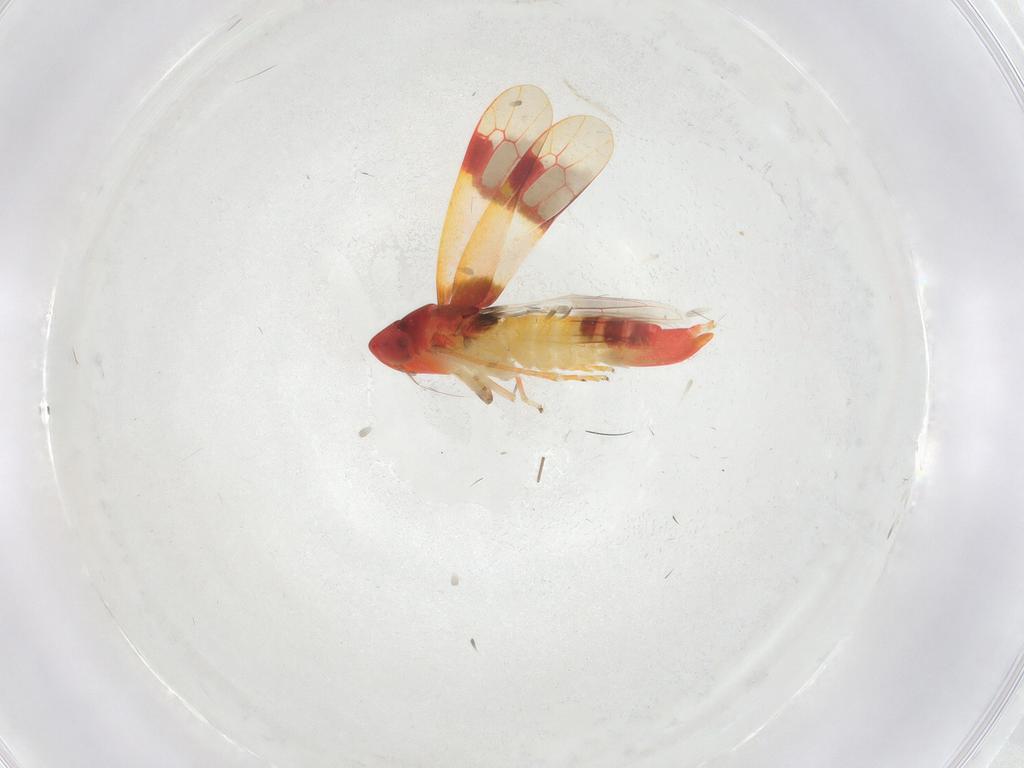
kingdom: Animalia
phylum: Arthropoda
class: Insecta
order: Hemiptera
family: Cicadellidae
